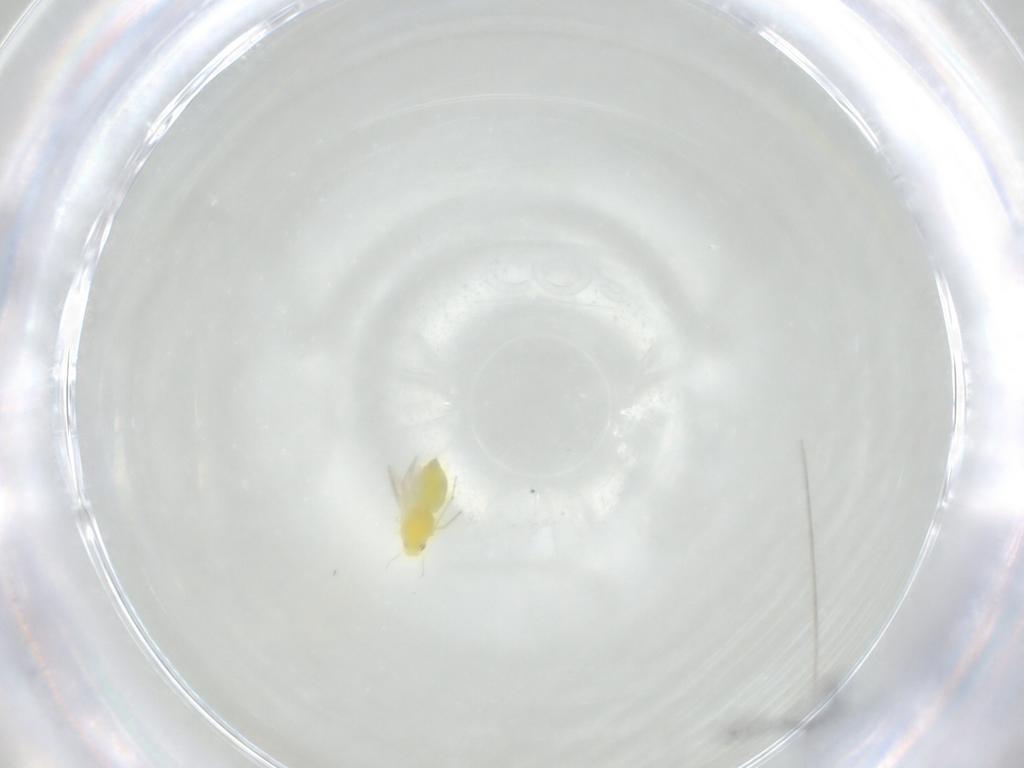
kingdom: Animalia
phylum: Arthropoda
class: Insecta
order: Hemiptera
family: Aleyrodidae
